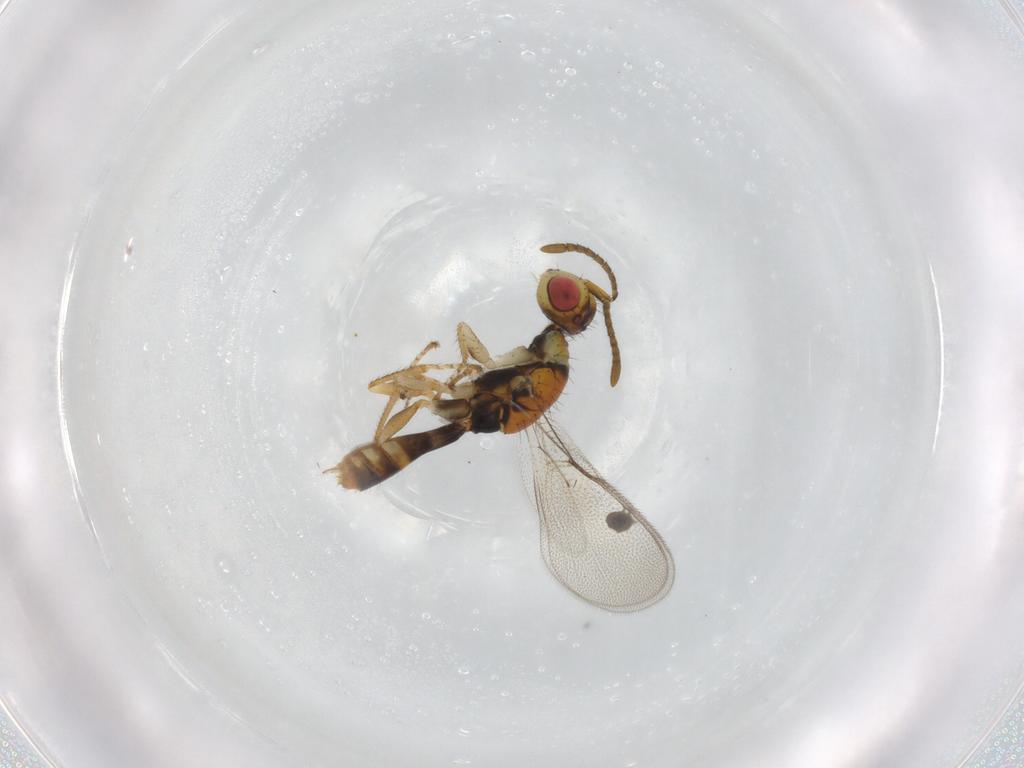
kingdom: Animalia
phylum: Arthropoda
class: Insecta
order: Hymenoptera
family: Megastigmidae
